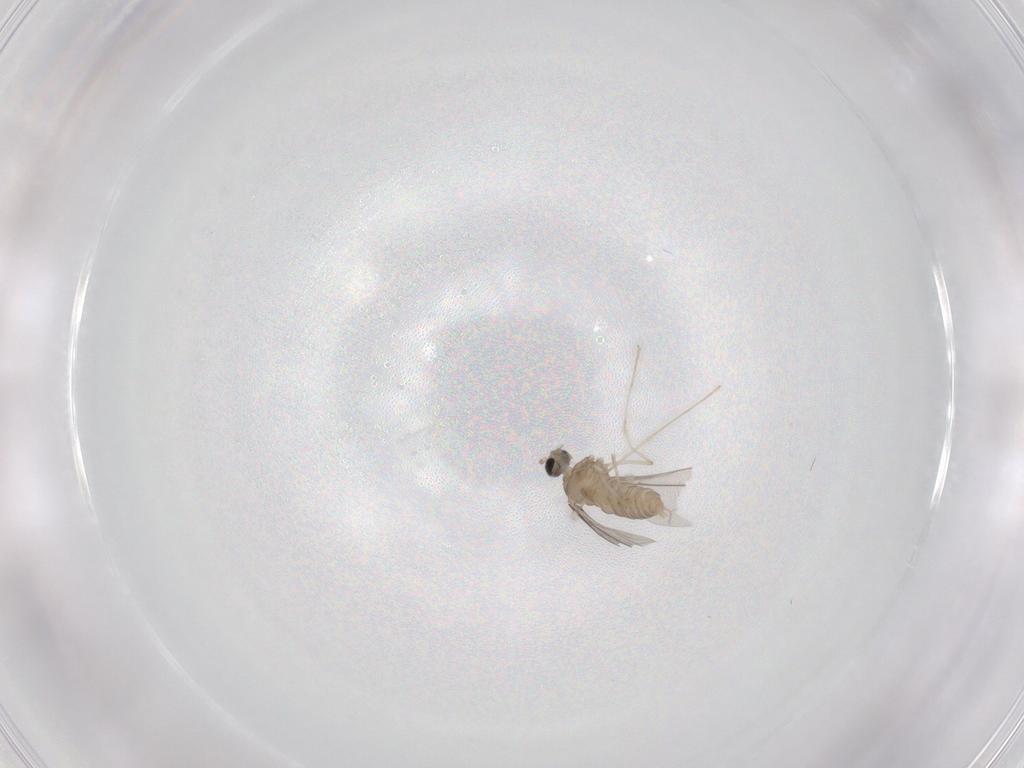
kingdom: Animalia
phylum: Arthropoda
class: Insecta
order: Diptera
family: Cecidomyiidae
